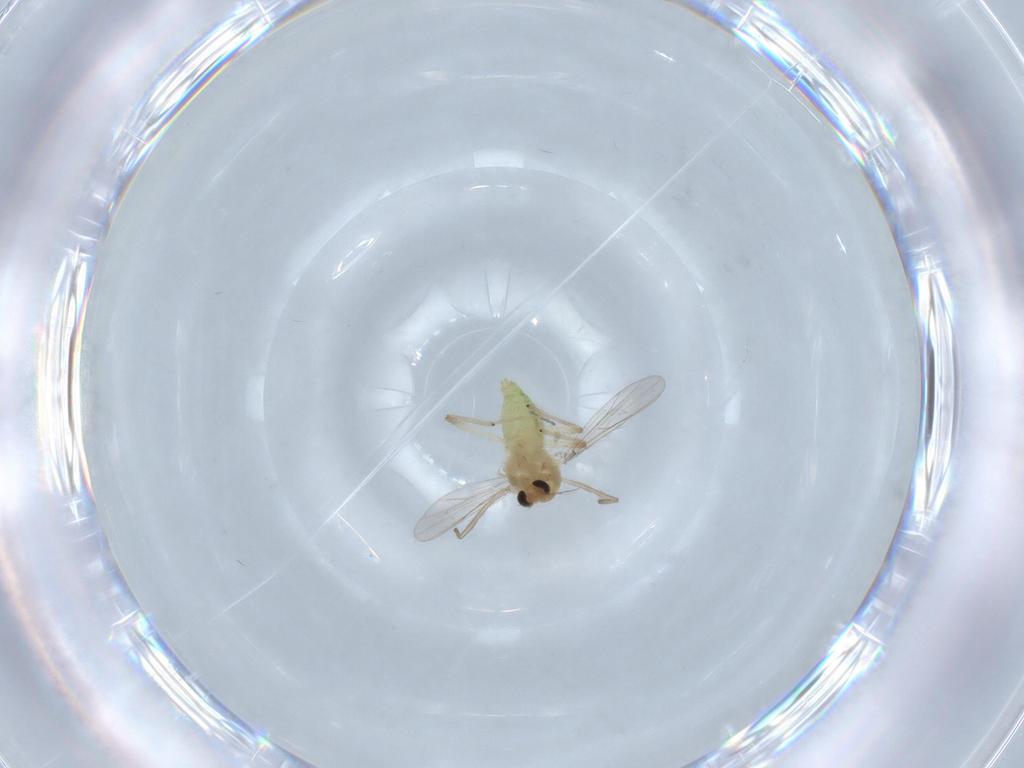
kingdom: Animalia
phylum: Arthropoda
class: Insecta
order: Diptera
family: Chironomidae
